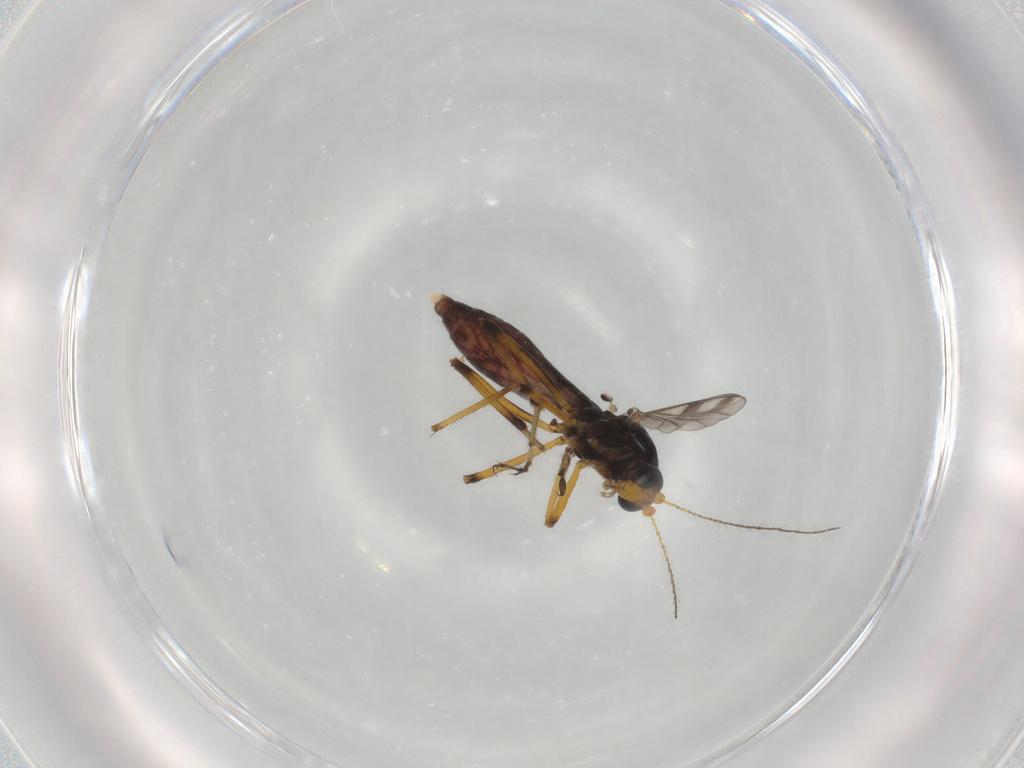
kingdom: Animalia
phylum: Arthropoda
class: Insecta
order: Diptera
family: Ceratopogonidae
